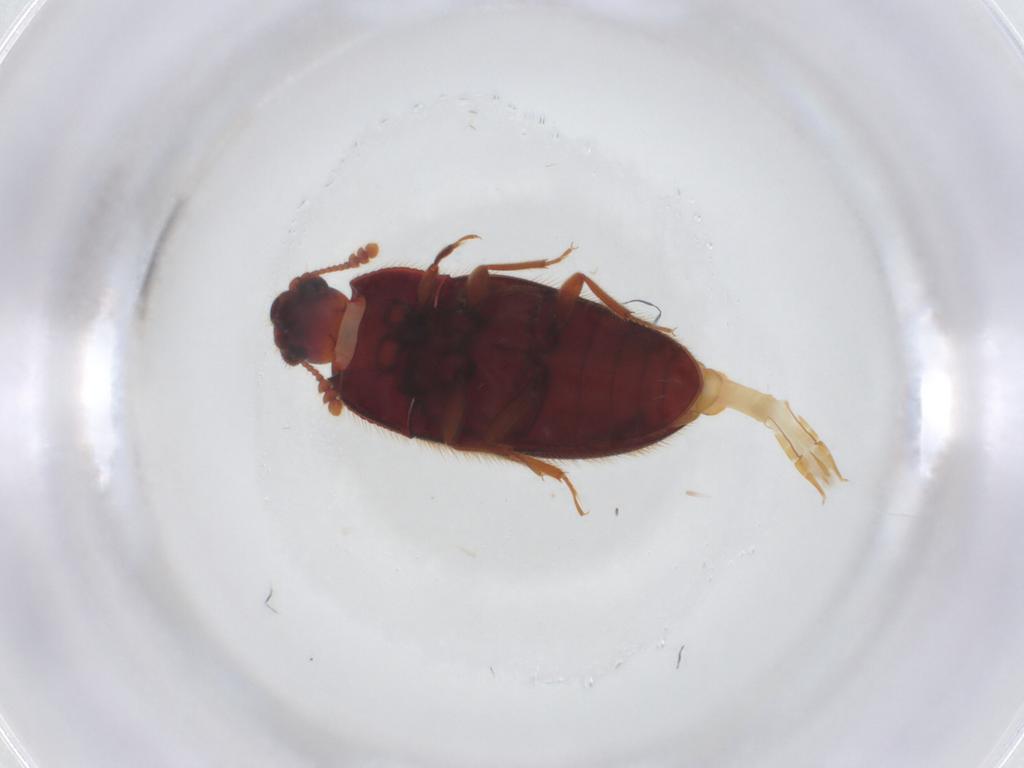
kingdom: Animalia
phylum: Arthropoda
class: Insecta
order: Coleoptera
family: Biphyllidae
